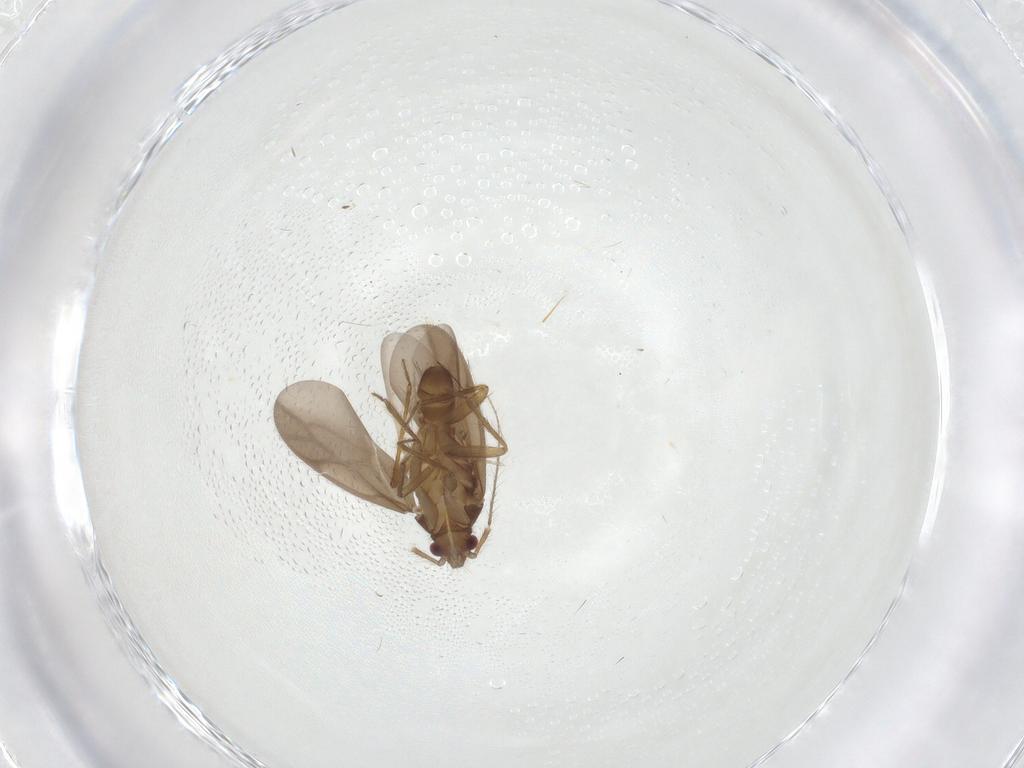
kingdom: Animalia
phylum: Arthropoda
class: Insecta
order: Hemiptera
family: Ceratocombidae
